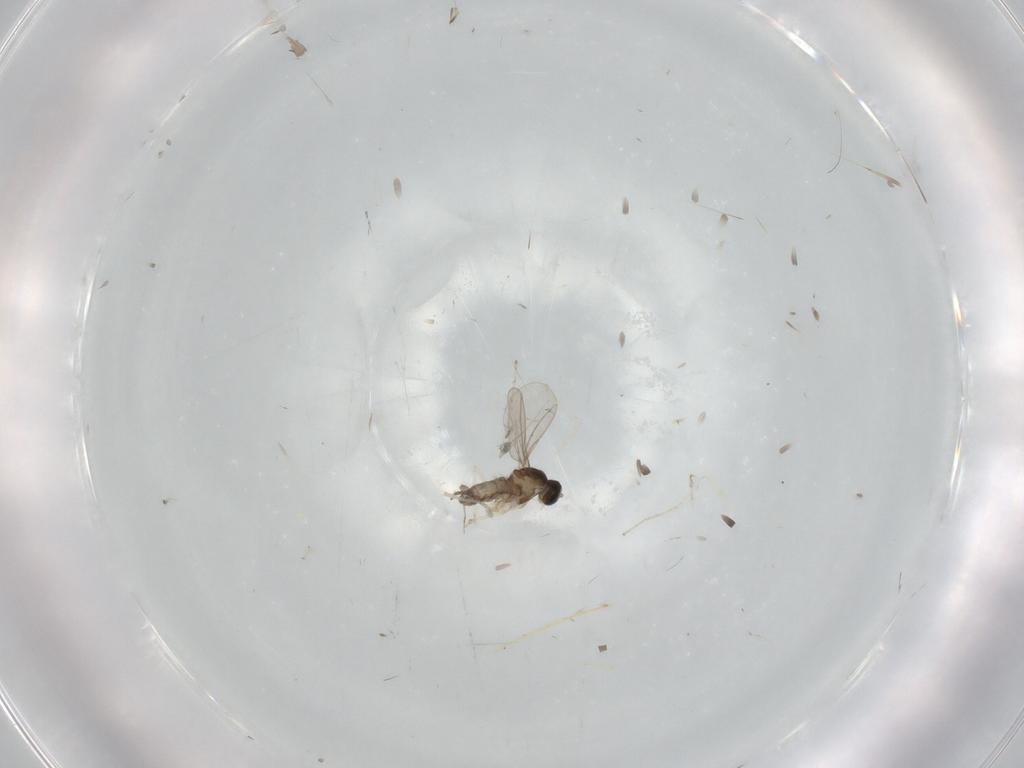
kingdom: Animalia
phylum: Arthropoda
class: Insecta
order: Diptera
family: Cecidomyiidae
